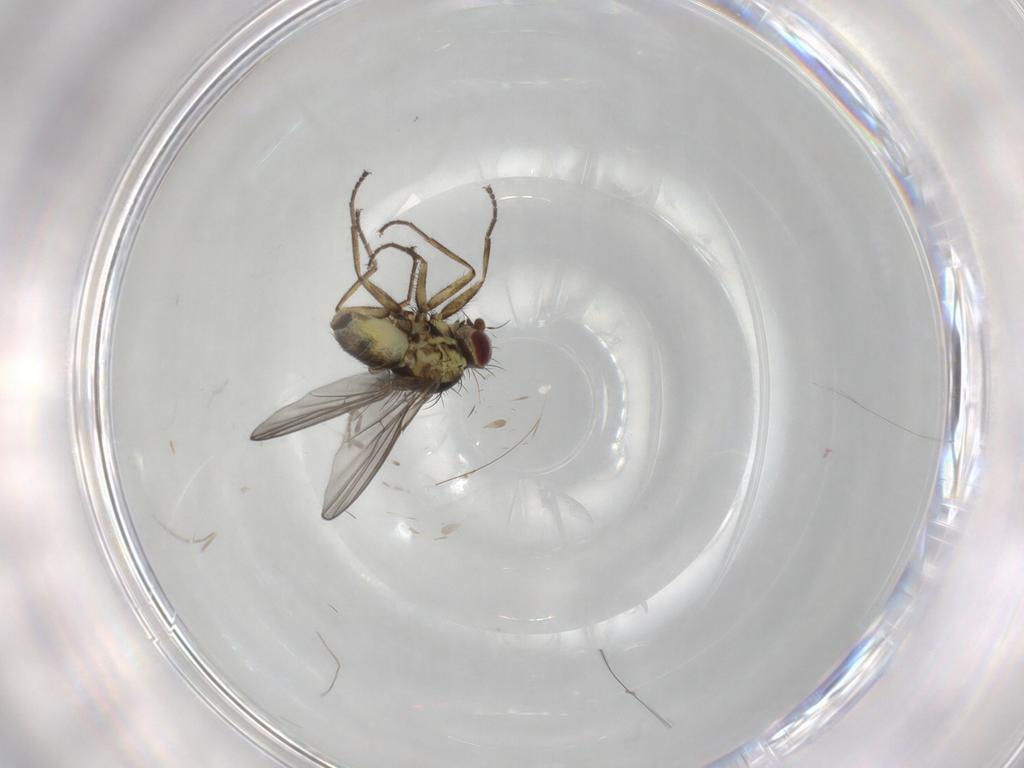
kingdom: Animalia
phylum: Arthropoda
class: Insecta
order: Diptera
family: Agromyzidae
